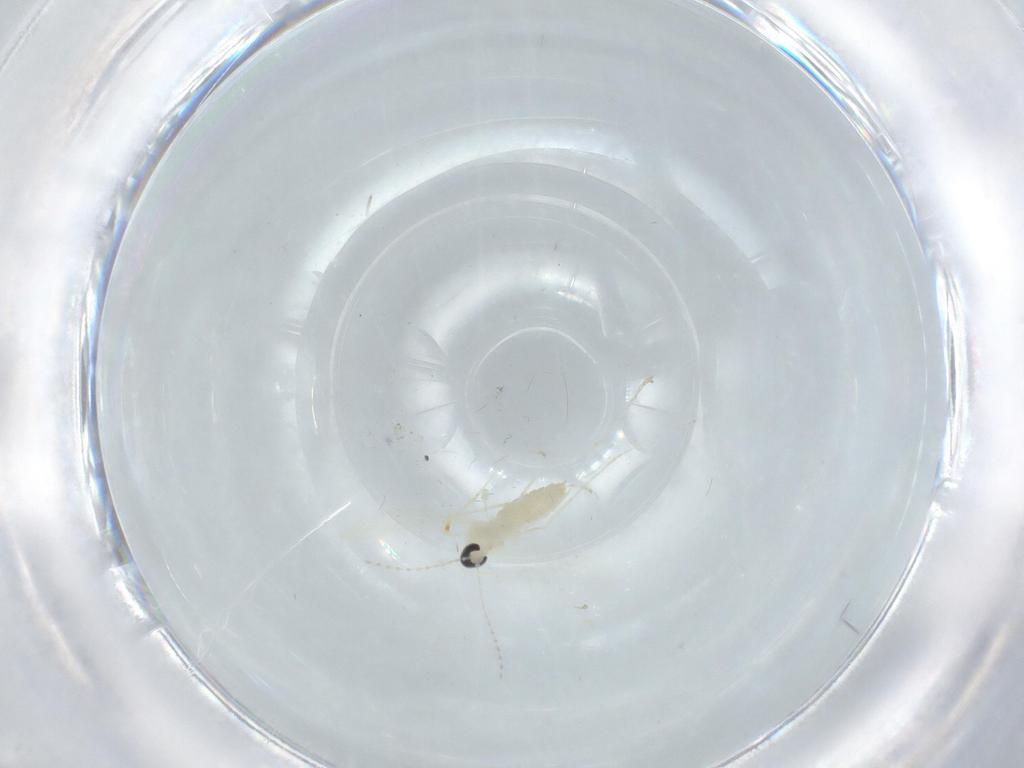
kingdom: Animalia
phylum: Arthropoda
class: Insecta
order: Diptera
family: Cecidomyiidae
